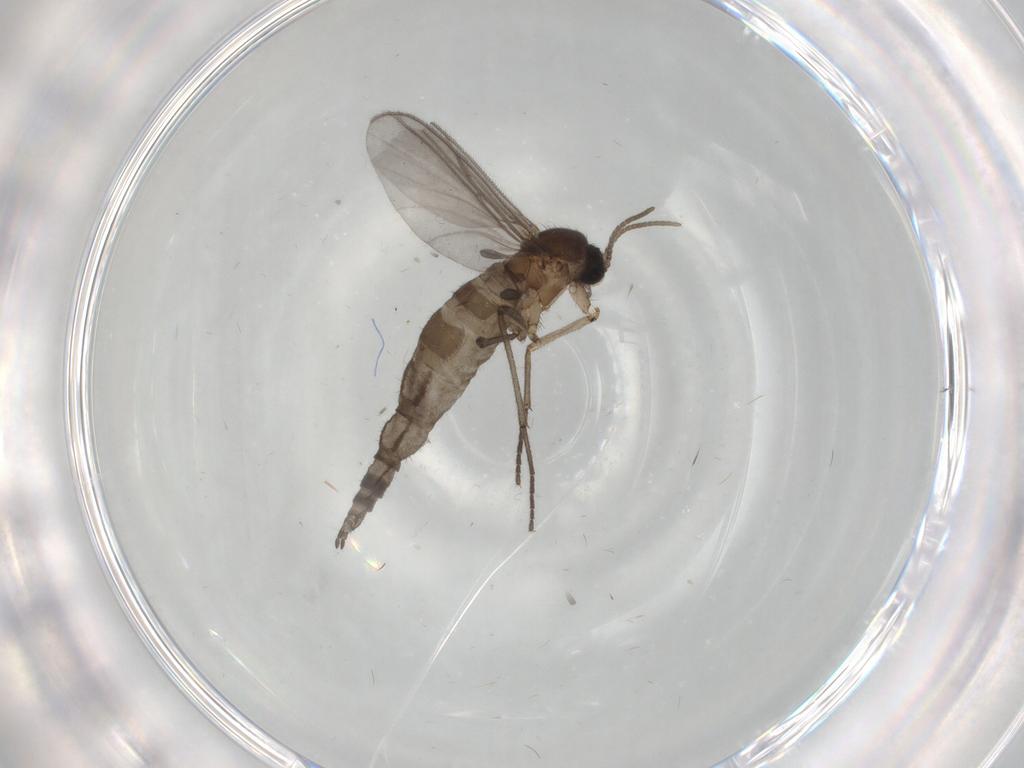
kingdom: Animalia
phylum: Arthropoda
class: Insecta
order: Diptera
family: Sciaridae
